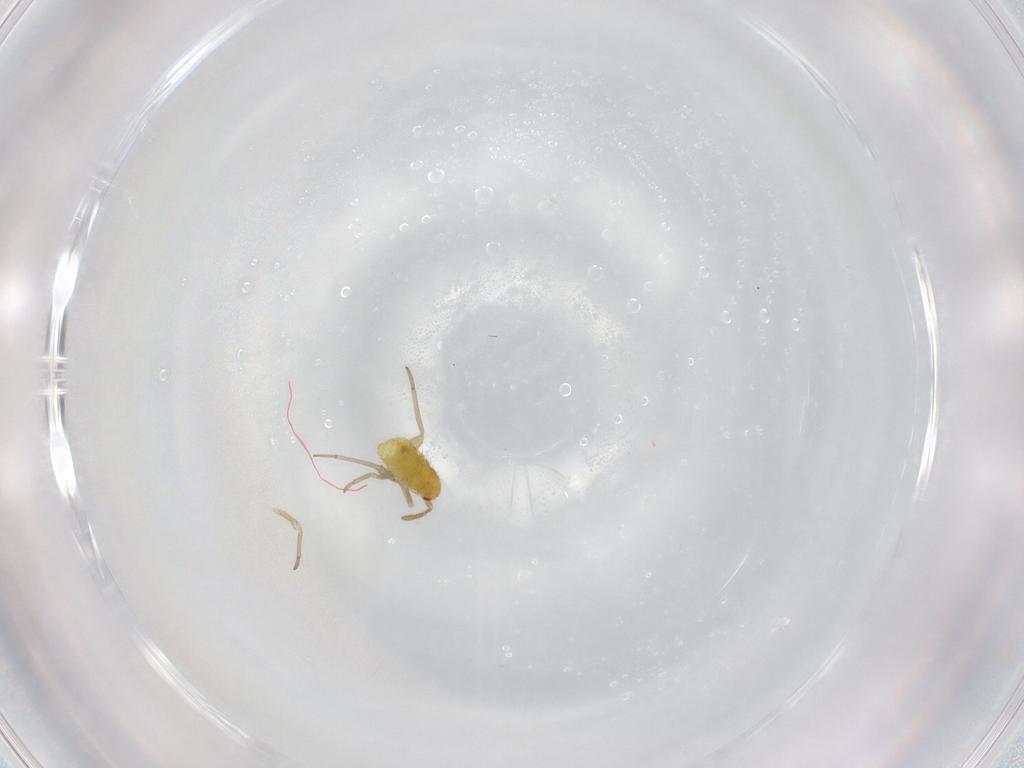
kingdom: Animalia
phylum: Arthropoda
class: Insecta
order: Hemiptera
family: Miridae
